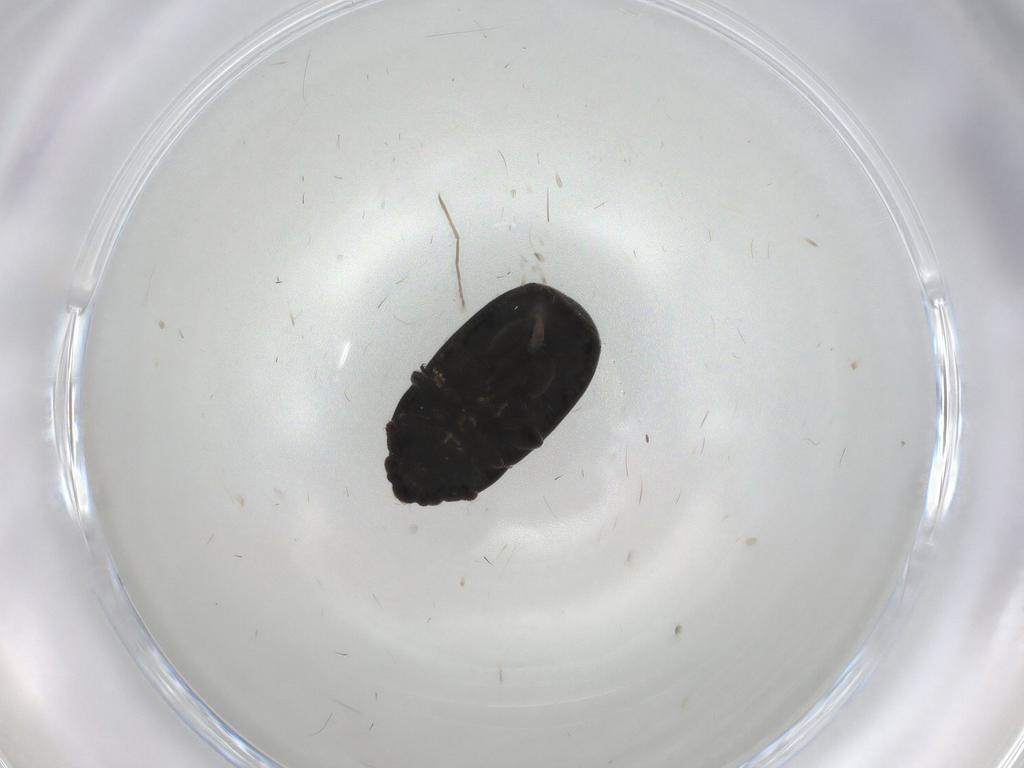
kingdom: Animalia
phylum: Arthropoda
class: Insecta
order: Coleoptera
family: Nitidulidae
